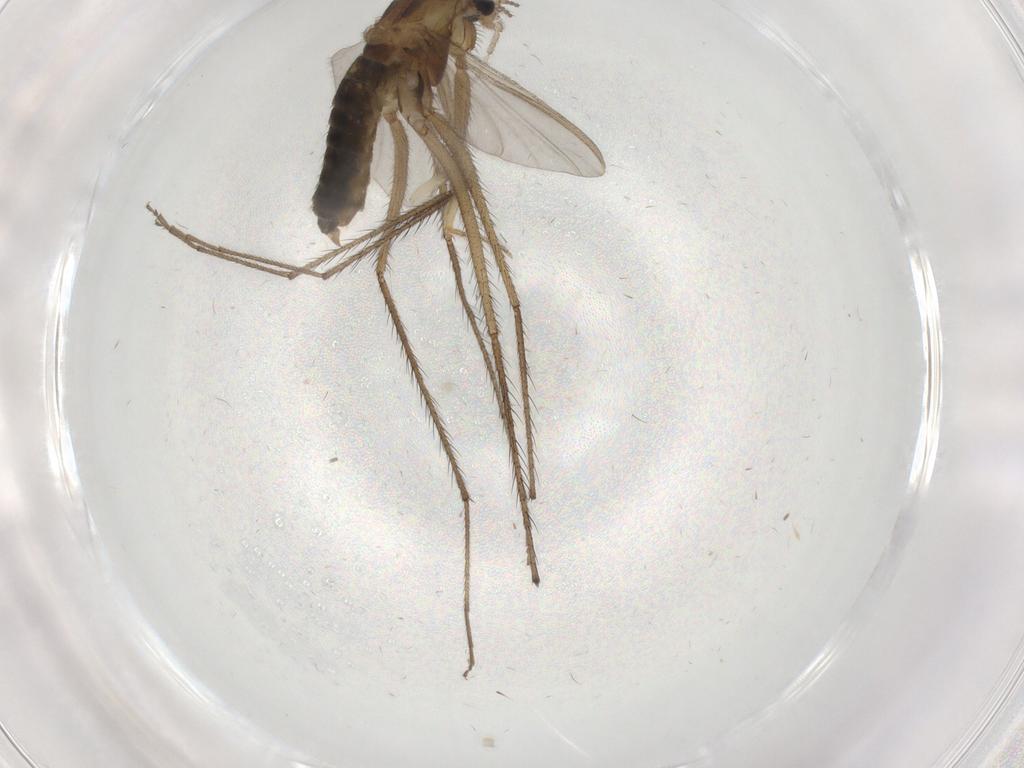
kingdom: Animalia
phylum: Arthropoda
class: Insecta
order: Diptera
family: Chironomidae
